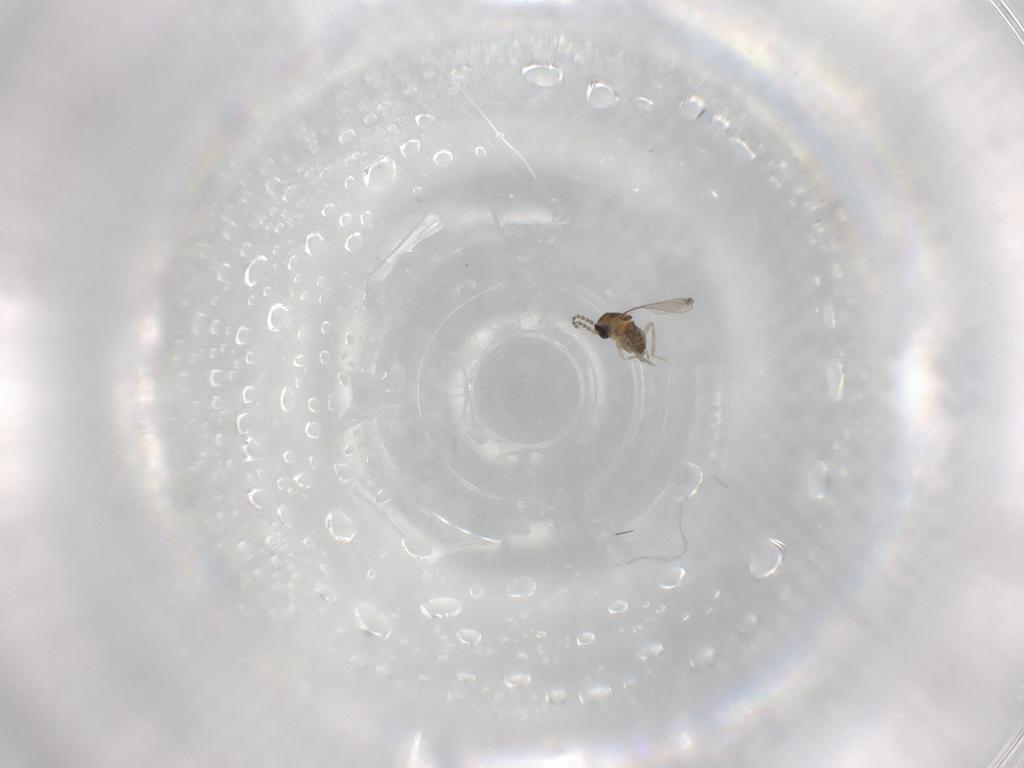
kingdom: Animalia
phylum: Arthropoda
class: Insecta
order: Diptera
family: Cecidomyiidae
